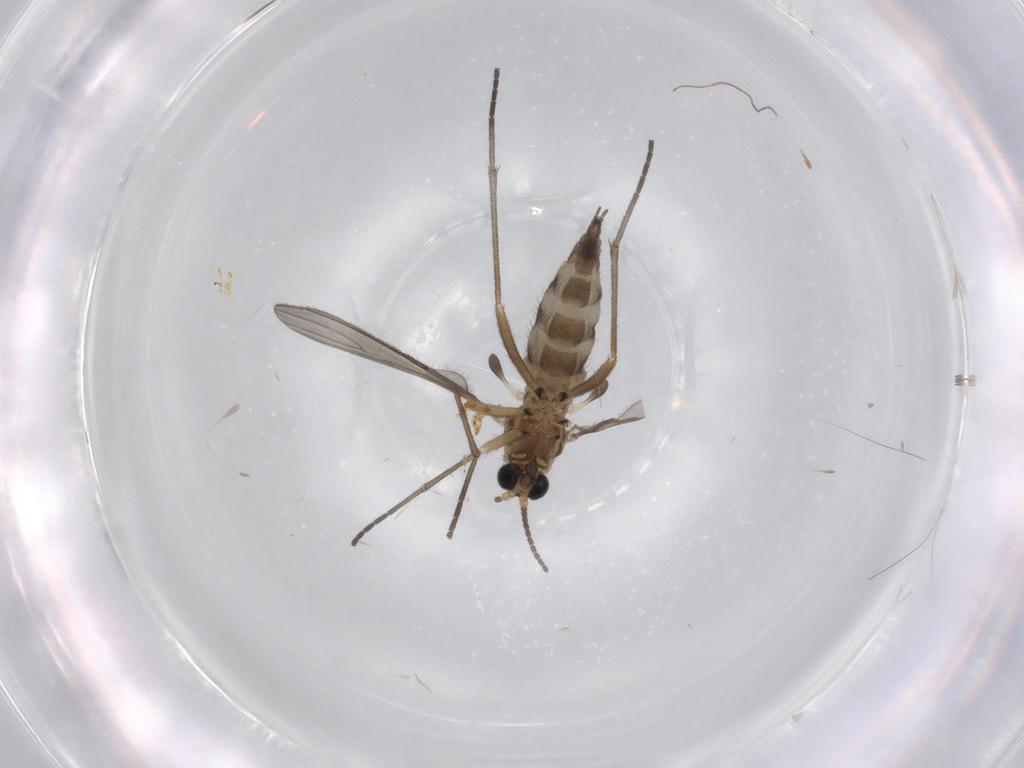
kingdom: Animalia
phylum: Arthropoda
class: Insecta
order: Diptera
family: Sciaridae
